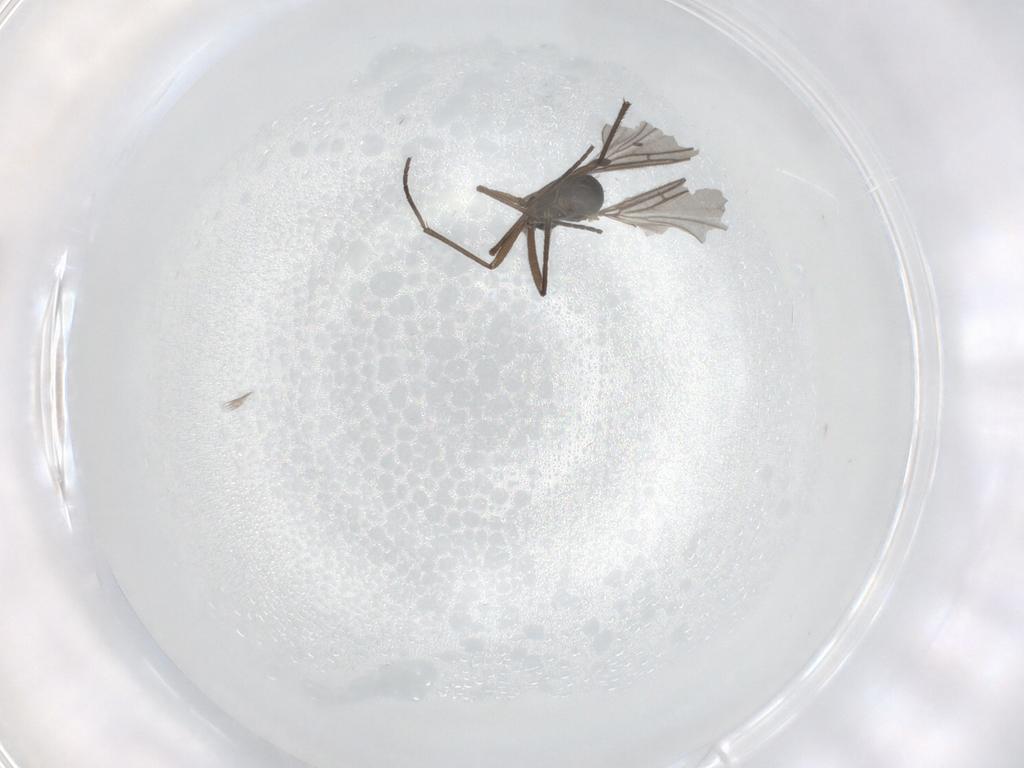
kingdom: Animalia
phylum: Arthropoda
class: Insecta
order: Diptera
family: Sciaridae
